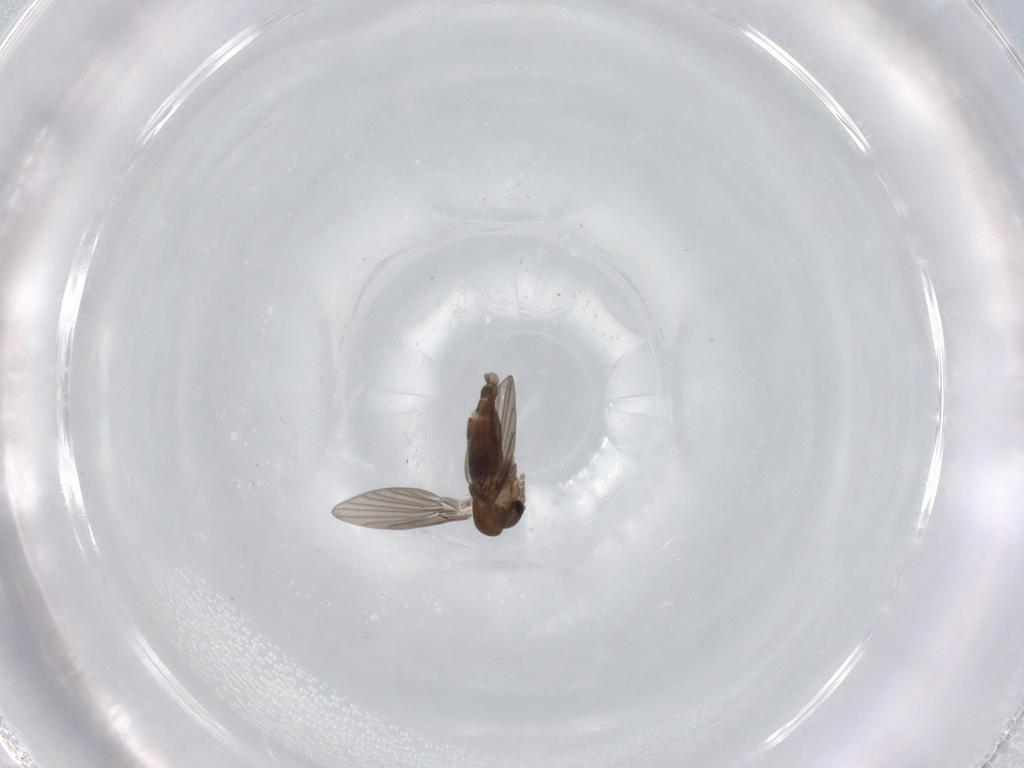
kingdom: Animalia
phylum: Arthropoda
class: Insecta
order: Diptera
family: Psychodidae
